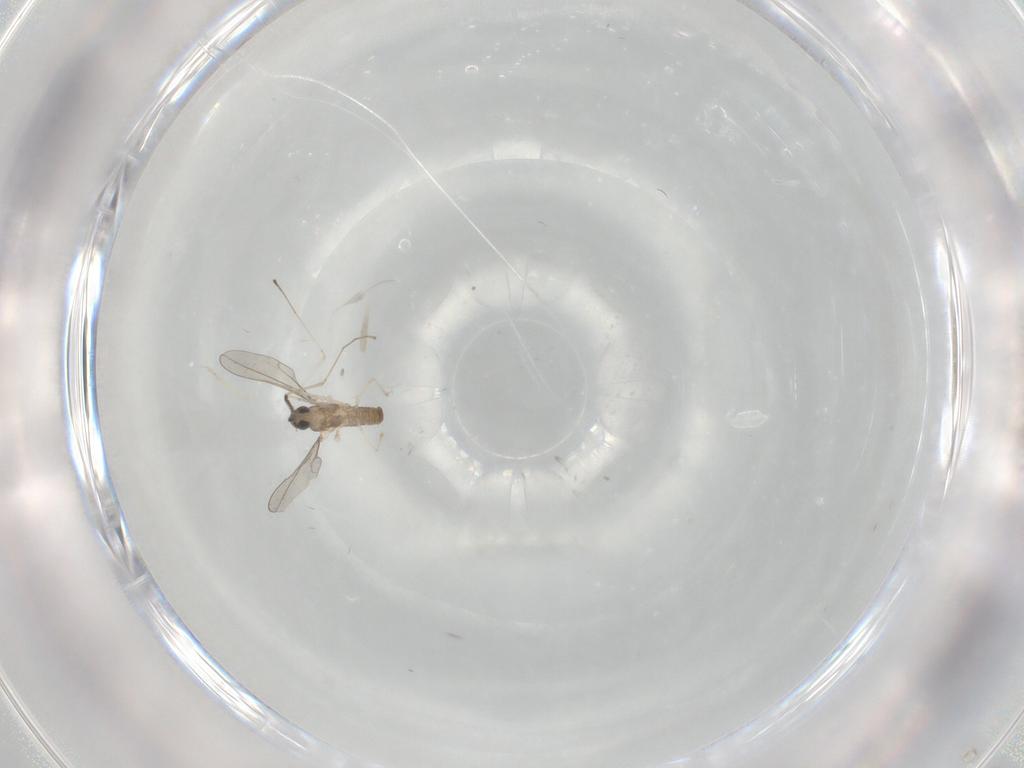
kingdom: Animalia
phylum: Arthropoda
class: Insecta
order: Diptera
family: Cecidomyiidae
